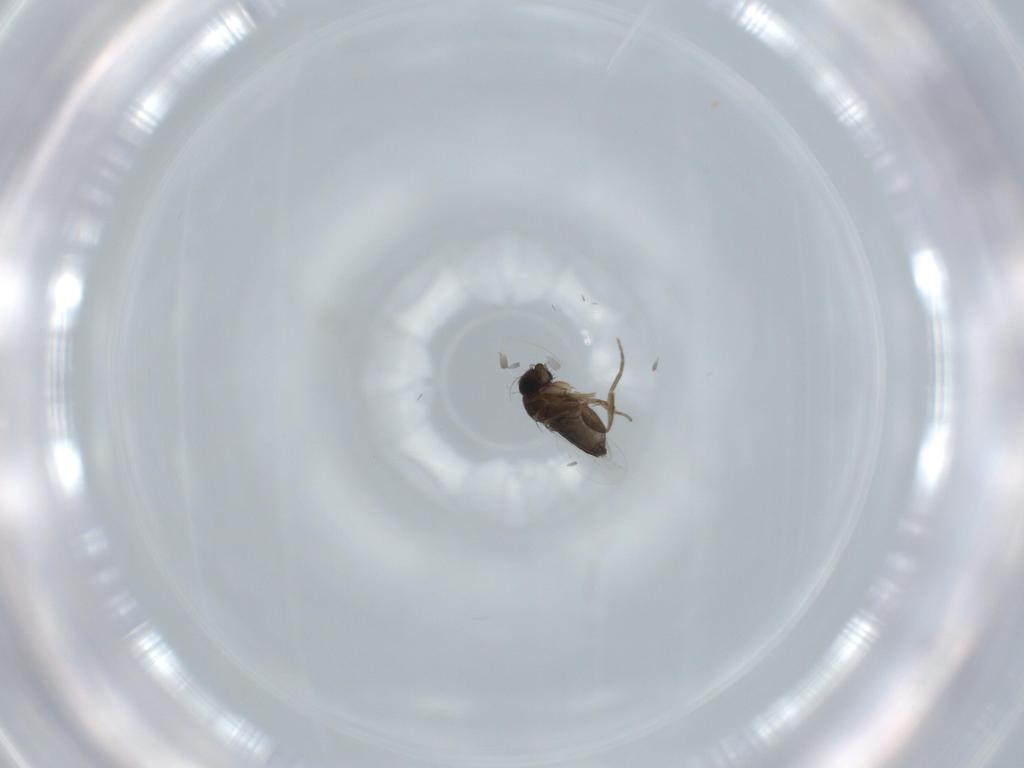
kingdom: Animalia
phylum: Arthropoda
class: Insecta
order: Diptera
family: Phoridae
